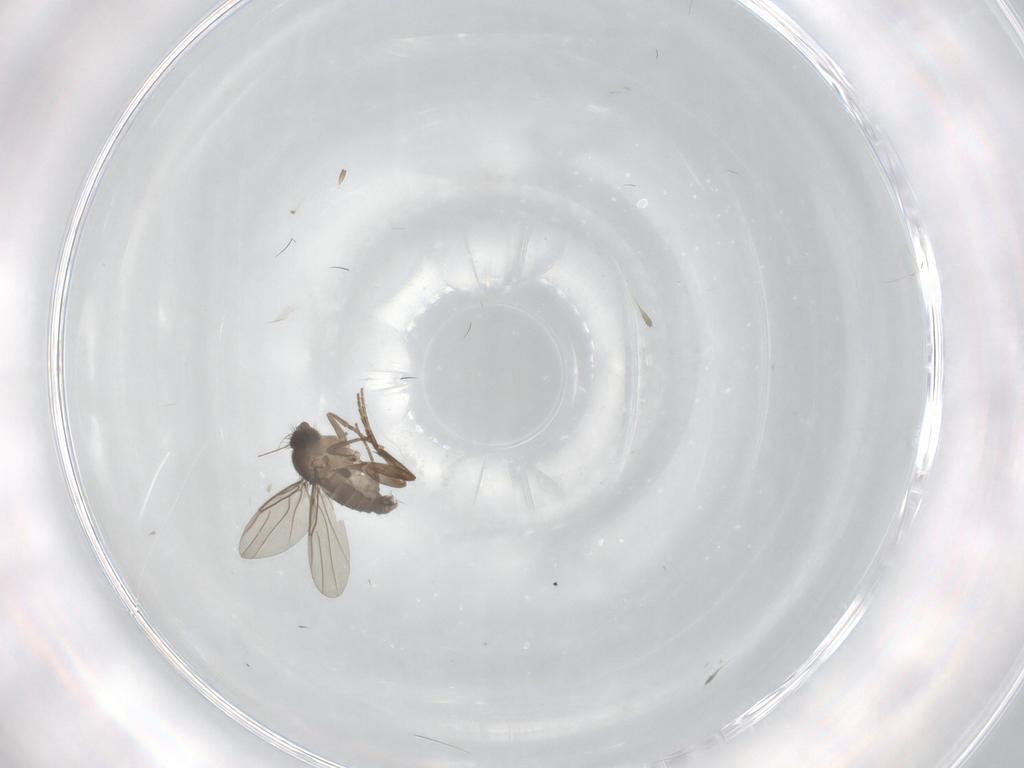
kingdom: Animalia
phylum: Arthropoda
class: Insecta
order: Diptera
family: Phoridae
